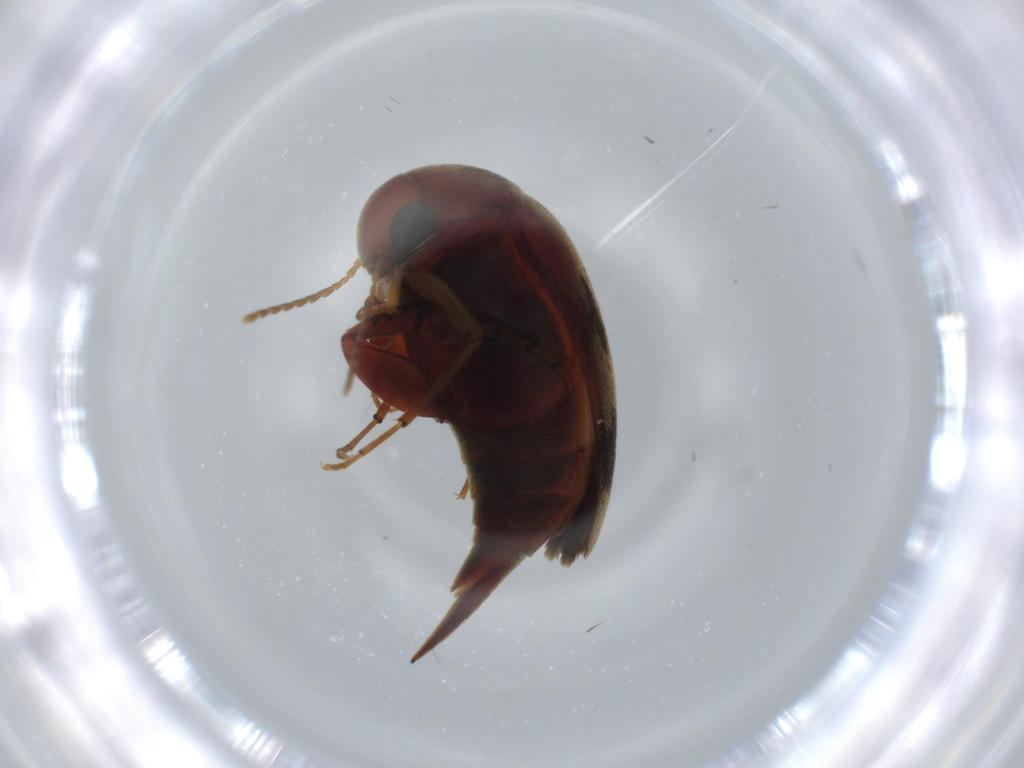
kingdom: Animalia
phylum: Arthropoda
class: Insecta
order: Coleoptera
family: Mordellidae
